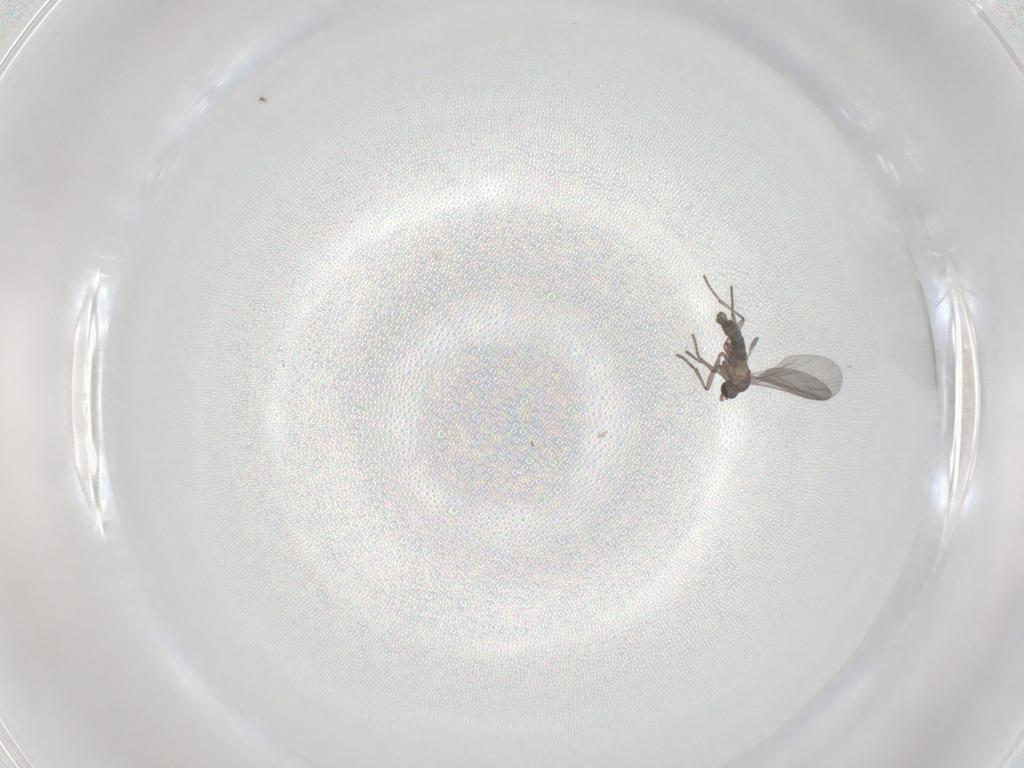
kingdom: Animalia
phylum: Arthropoda
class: Insecta
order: Diptera
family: Sciaridae
